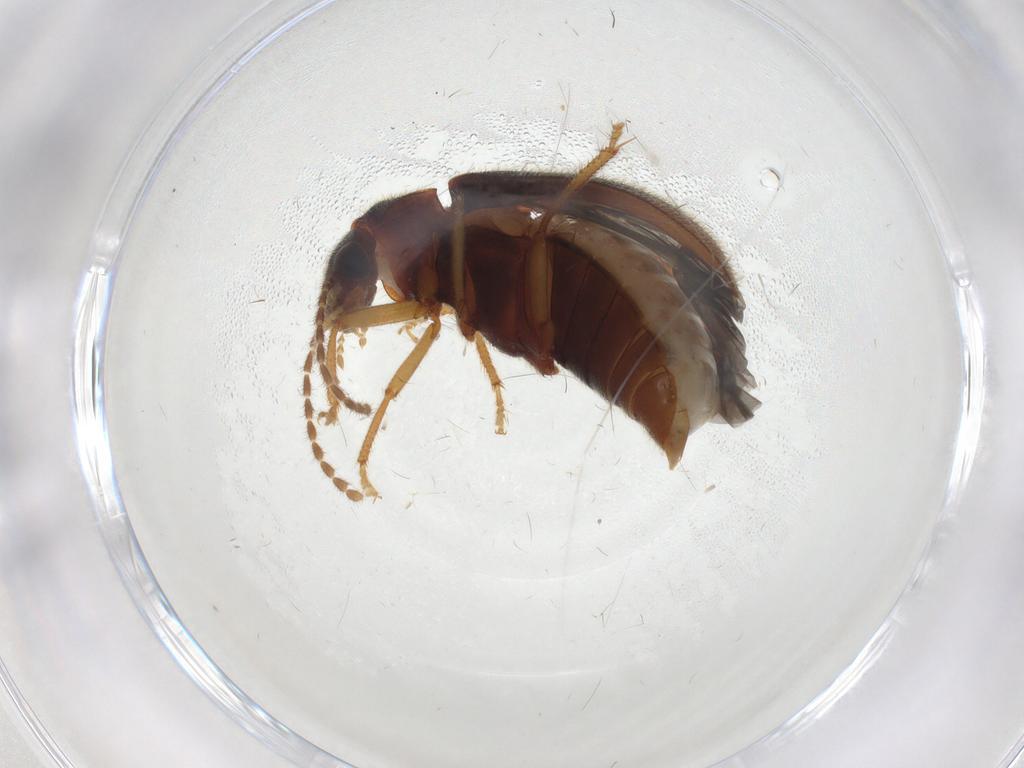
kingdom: Animalia
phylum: Arthropoda
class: Insecta
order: Coleoptera
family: Ptilodactylidae
